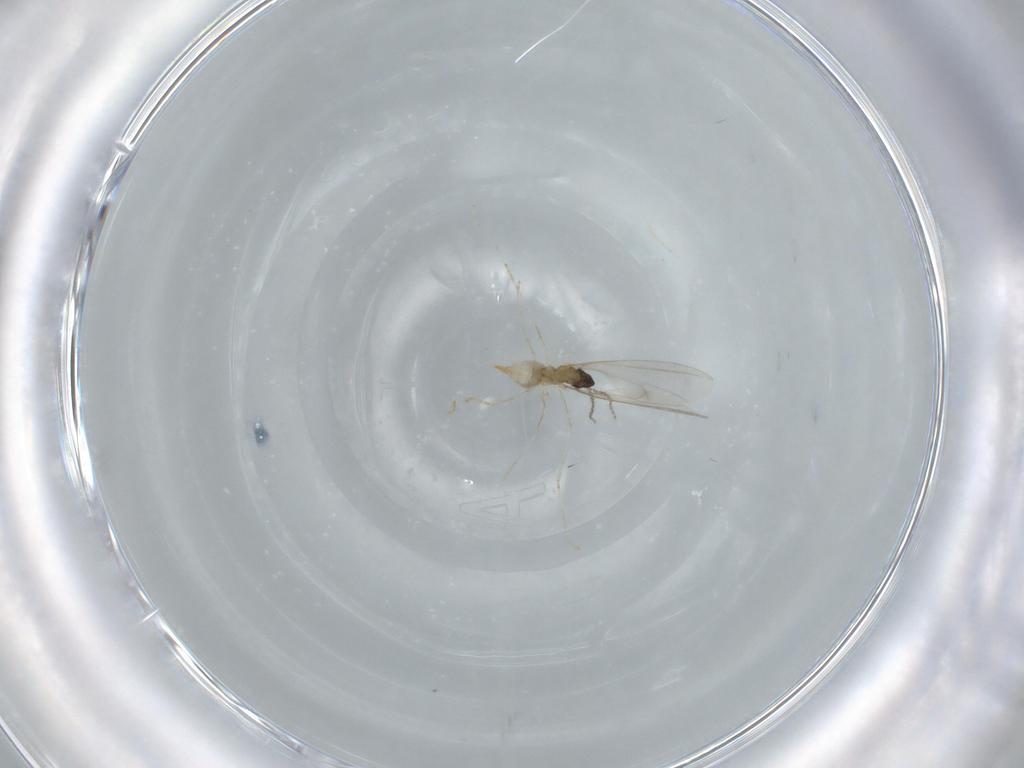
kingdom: Animalia
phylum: Arthropoda
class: Insecta
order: Diptera
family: Cecidomyiidae
